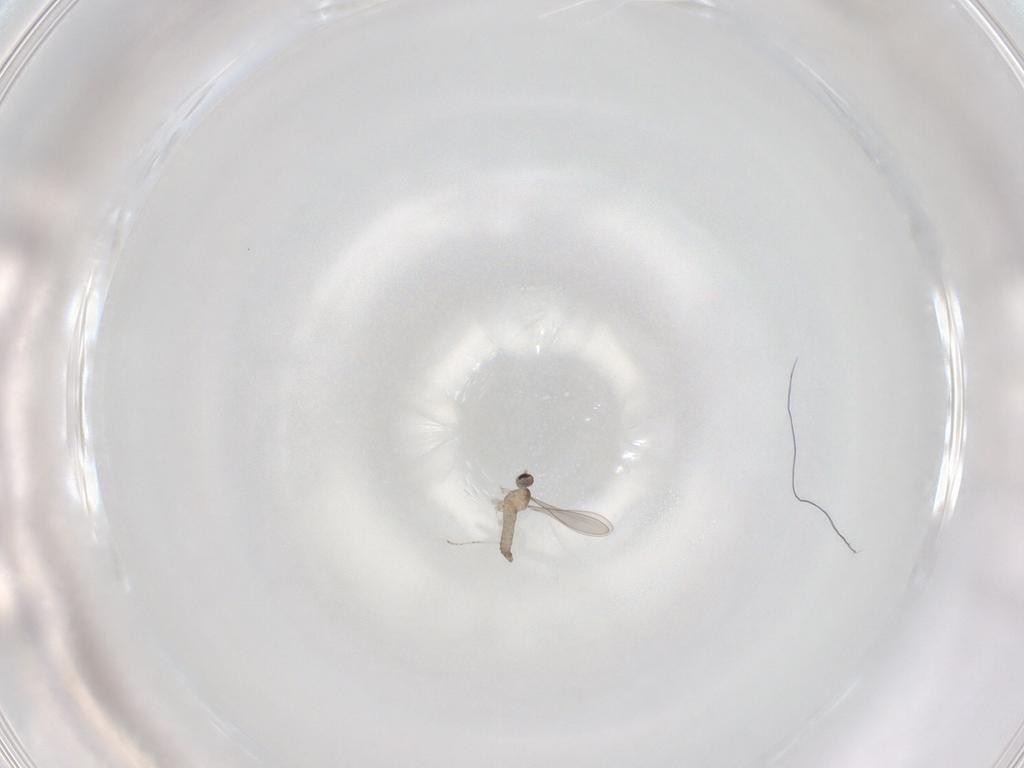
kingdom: Animalia
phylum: Arthropoda
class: Insecta
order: Diptera
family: Cecidomyiidae
